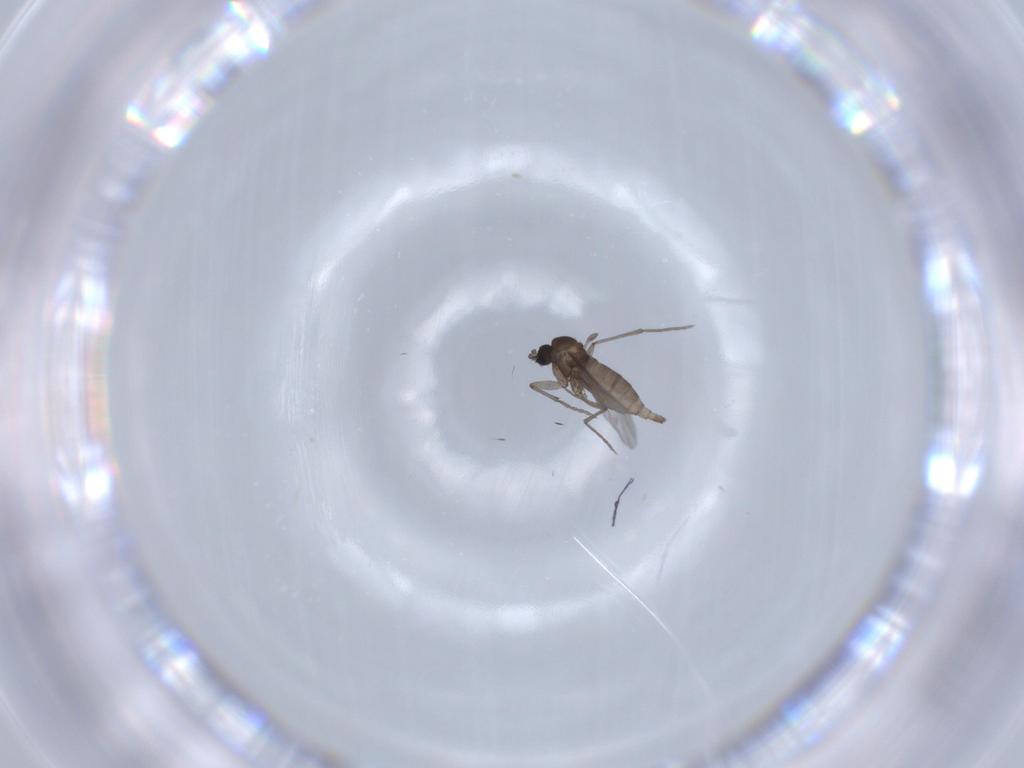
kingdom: Animalia
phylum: Arthropoda
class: Insecta
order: Diptera
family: Sciaridae
